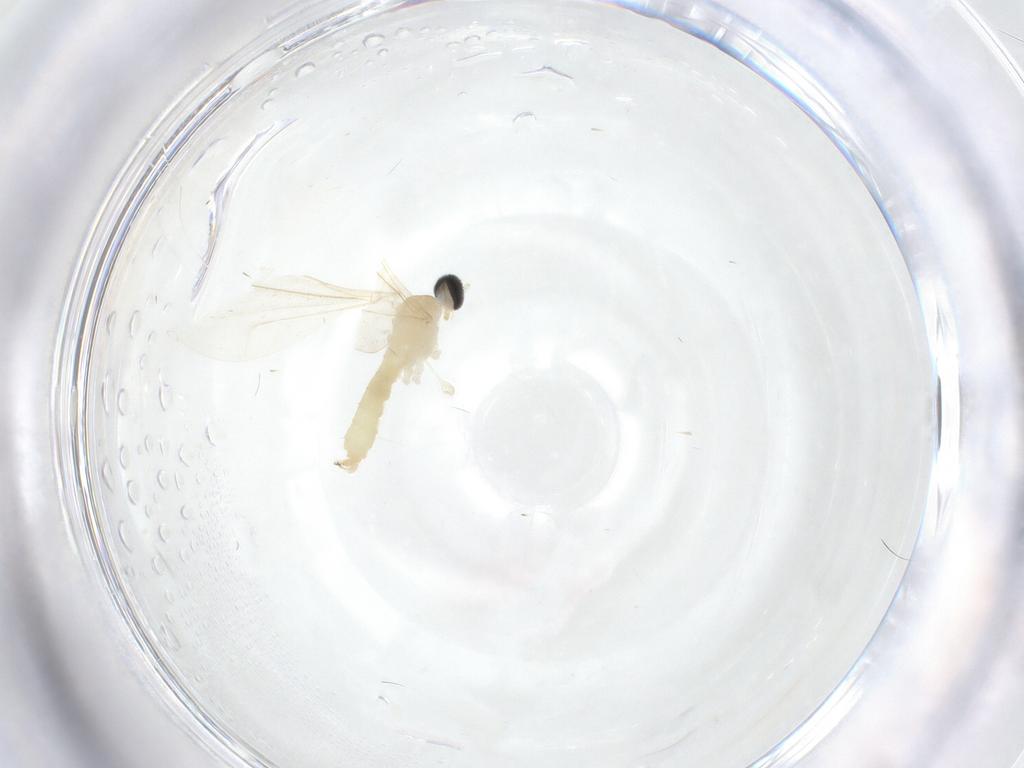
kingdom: Animalia
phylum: Arthropoda
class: Insecta
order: Diptera
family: Cecidomyiidae
